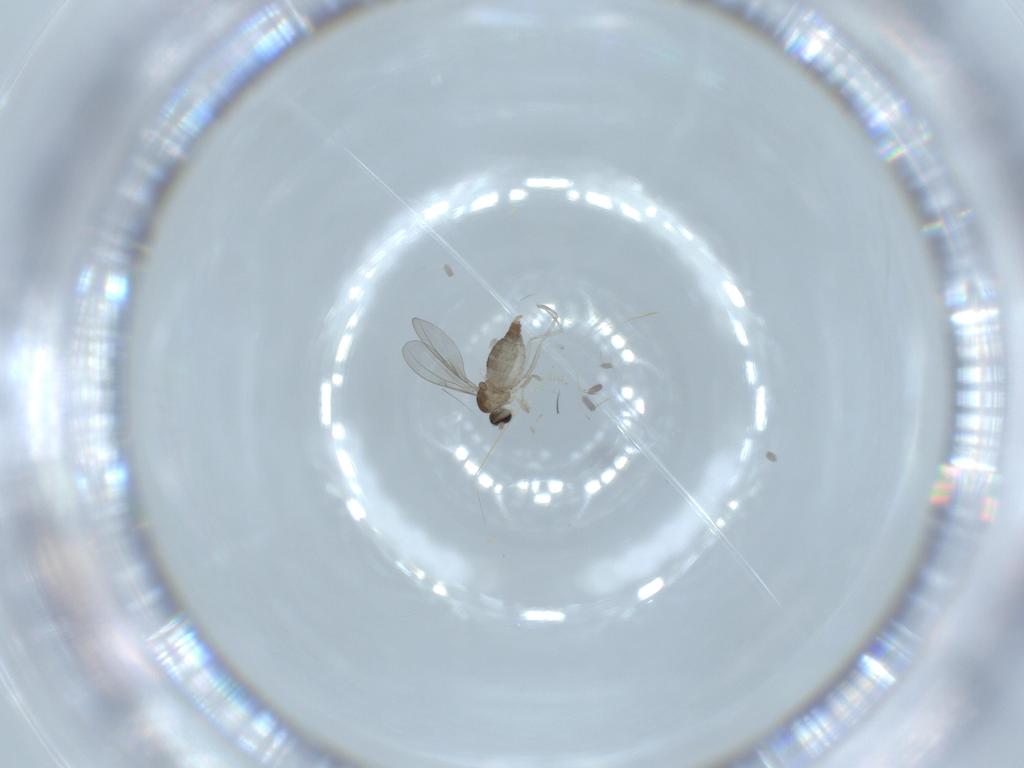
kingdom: Animalia
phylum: Arthropoda
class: Insecta
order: Diptera
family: Cecidomyiidae
